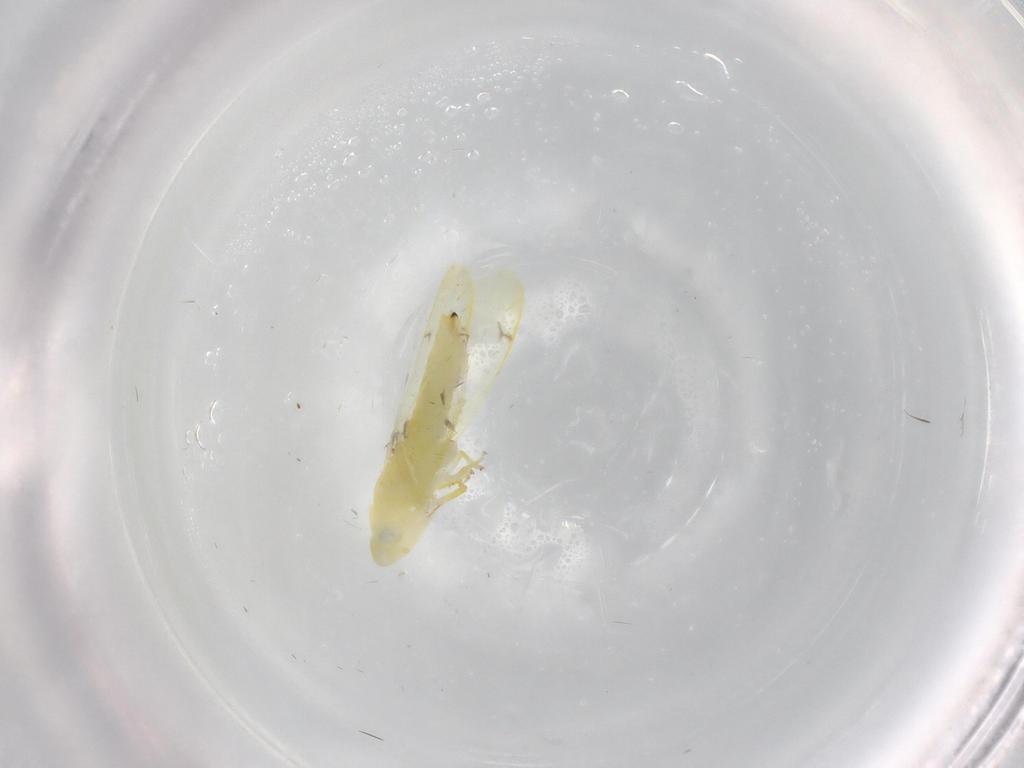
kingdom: Animalia
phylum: Arthropoda
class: Insecta
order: Hemiptera
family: Cicadellidae
